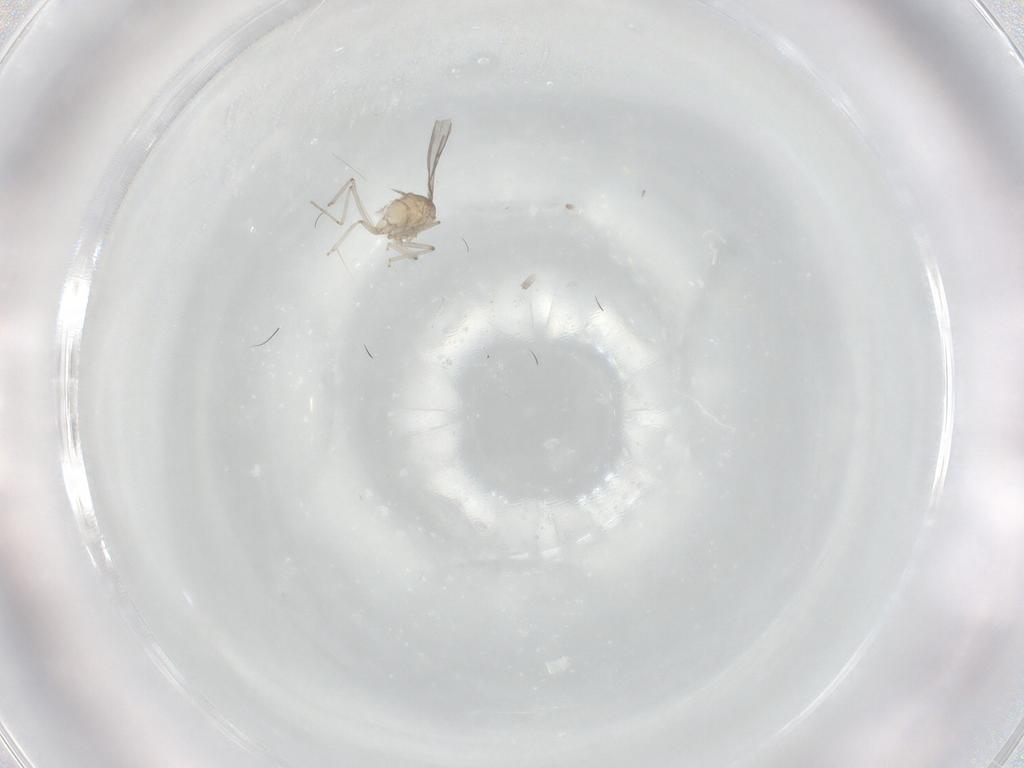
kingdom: Animalia
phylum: Arthropoda
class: Insecta
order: Diptera
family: Cecidomyiidae
